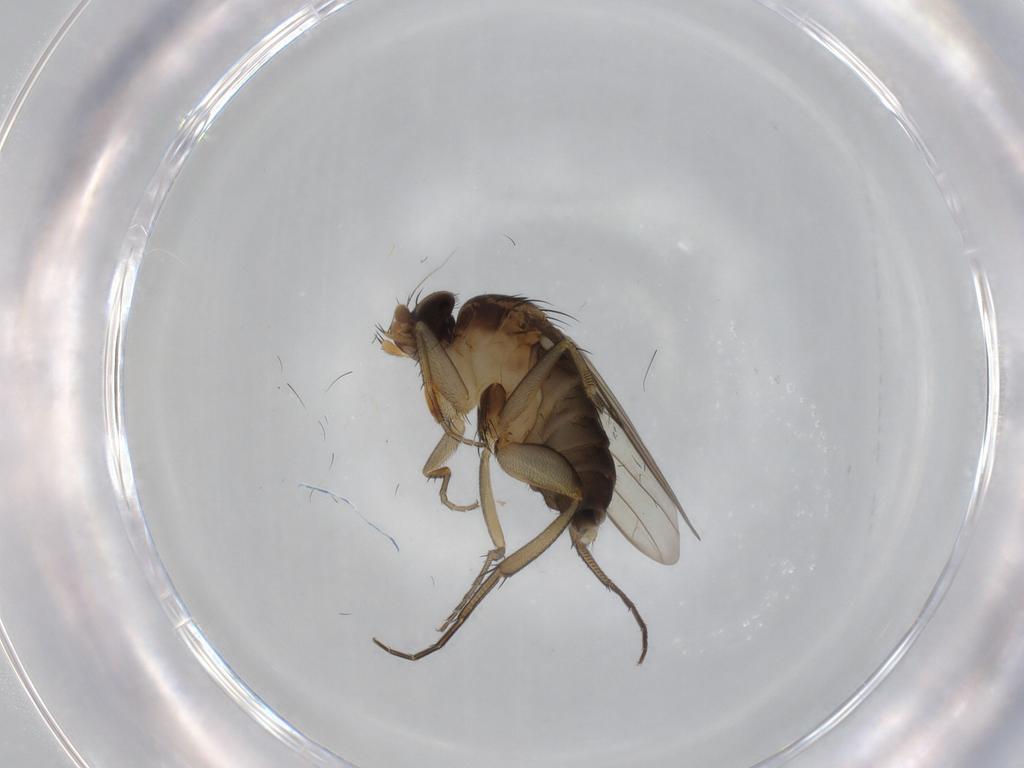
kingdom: Animalia
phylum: Arthropoda
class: Insecta
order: Diptera
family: Phoridae
